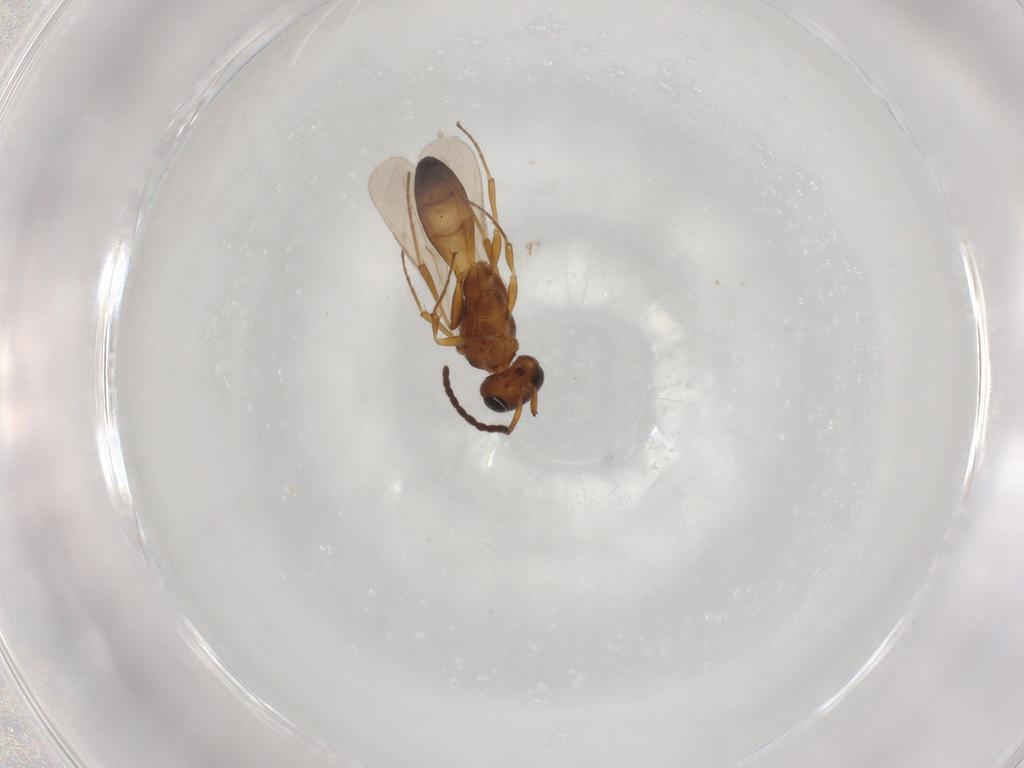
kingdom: Animalia
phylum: Arthropoda
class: Insecta
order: Hymenoptera
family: Scelionidae
